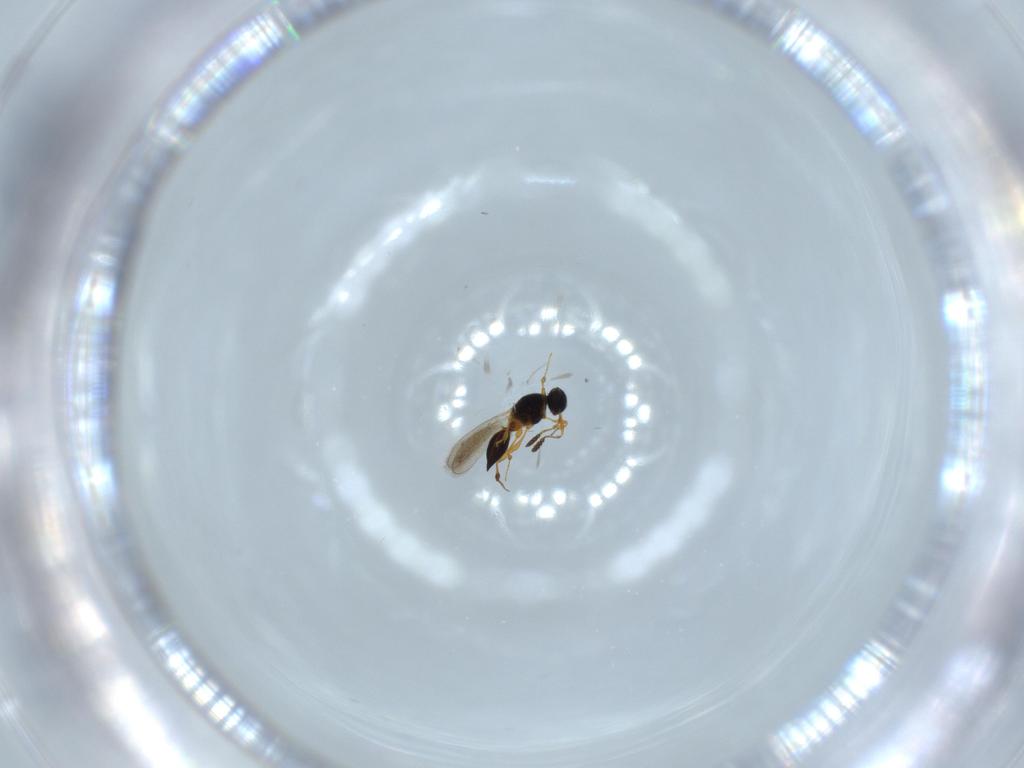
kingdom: Animalia
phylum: Arthropoda
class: Insecta
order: Hymenoptera
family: Platygastridae
